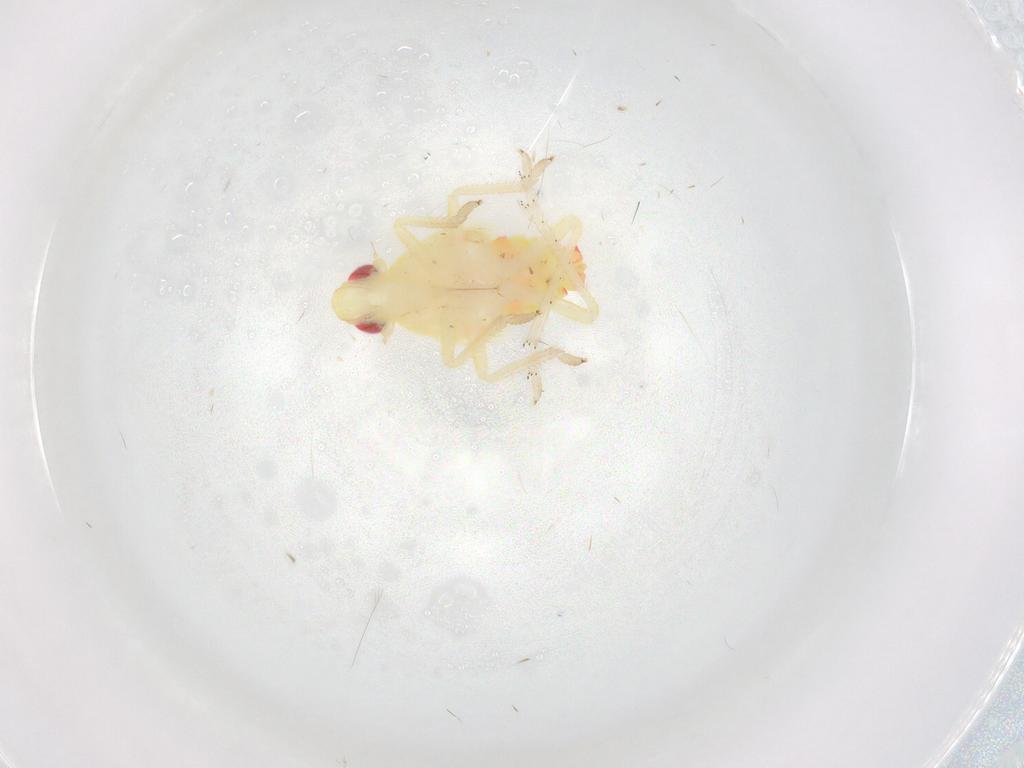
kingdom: Animalia
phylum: Arthropoda
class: Insecta
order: Hemiptera
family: Tropiduchidae
